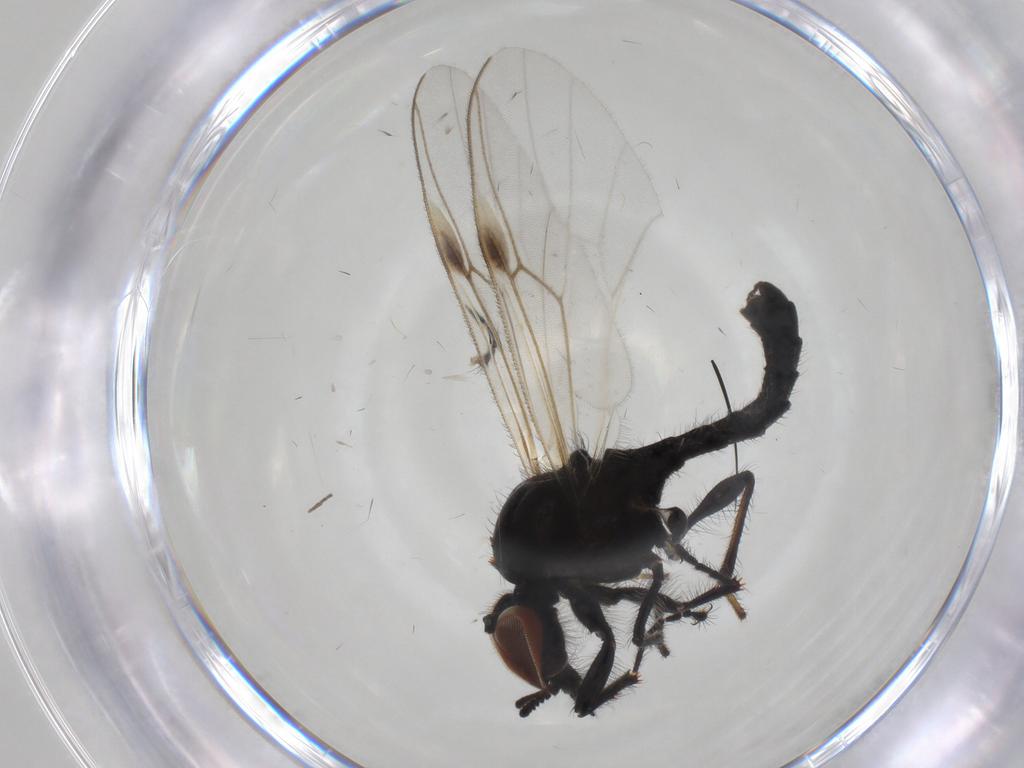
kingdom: Animalia
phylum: Arthropoda
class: Insecta
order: Diptera
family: Bibionidae
